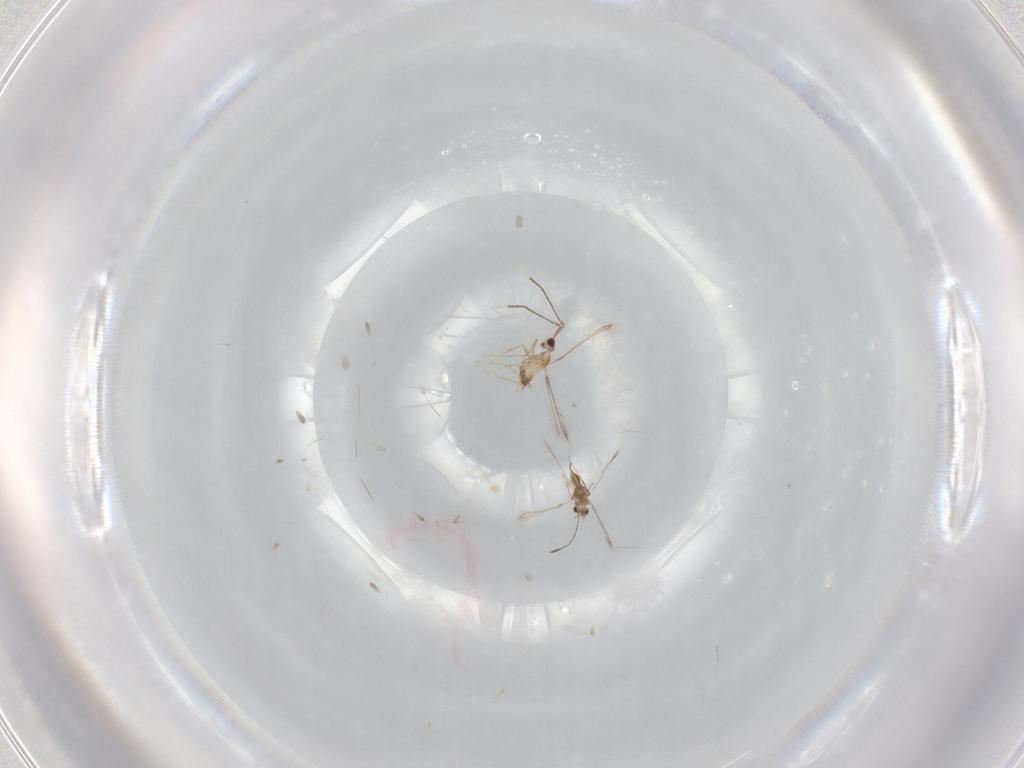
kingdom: Animalia
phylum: Arthropoda
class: Insecta
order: Hymenoptera
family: Mymaridae
